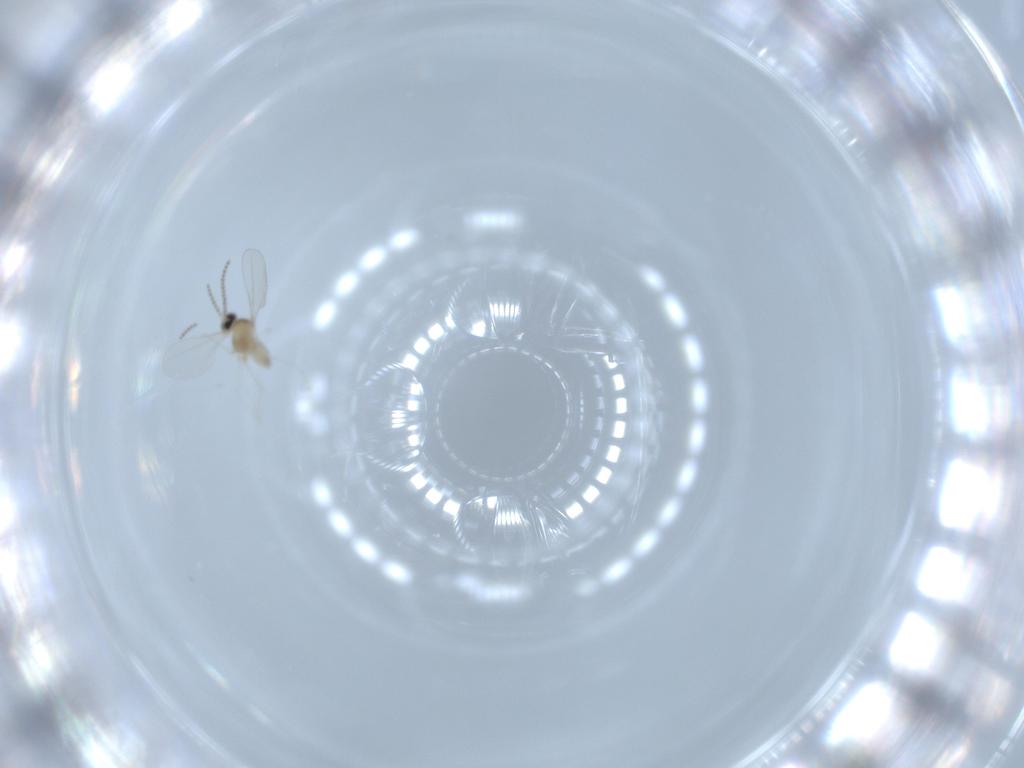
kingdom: Animalia
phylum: Arthropoda
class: Insecta
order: Diptera
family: Cecidomyiidae
